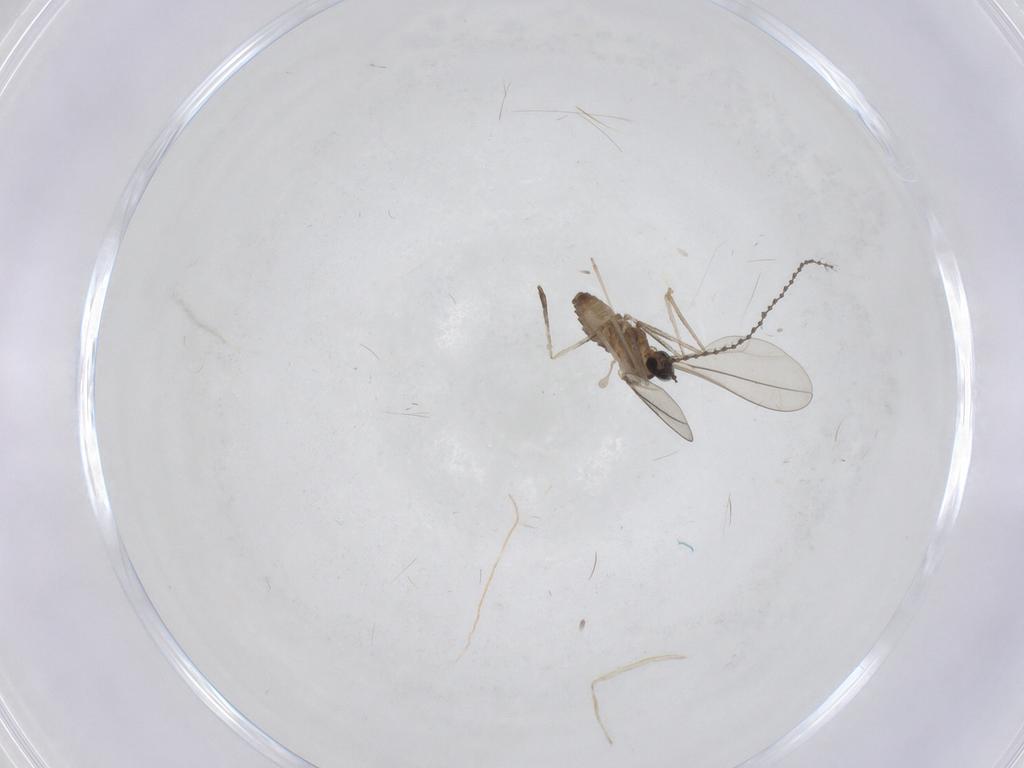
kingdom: Animalia
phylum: Arthropoda
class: Insecta
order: Diptera
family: Cecidomyiidae
